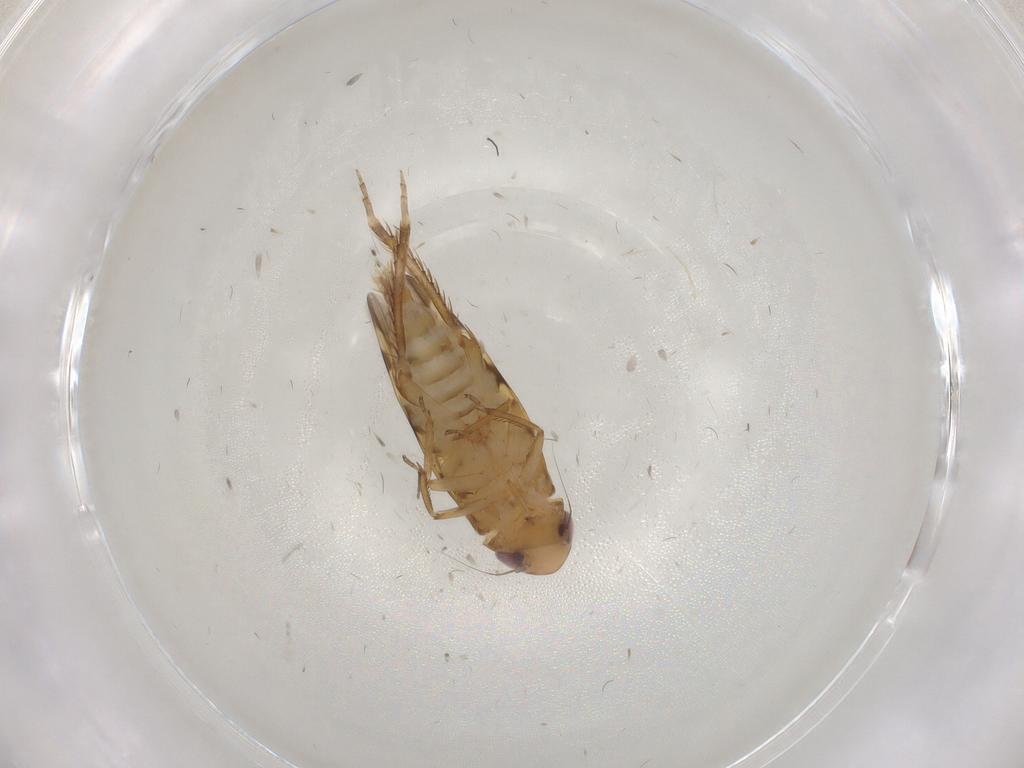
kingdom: Animalia
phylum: Arthropoda
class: Insecta
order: Hemiptera
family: Cicadellidae
